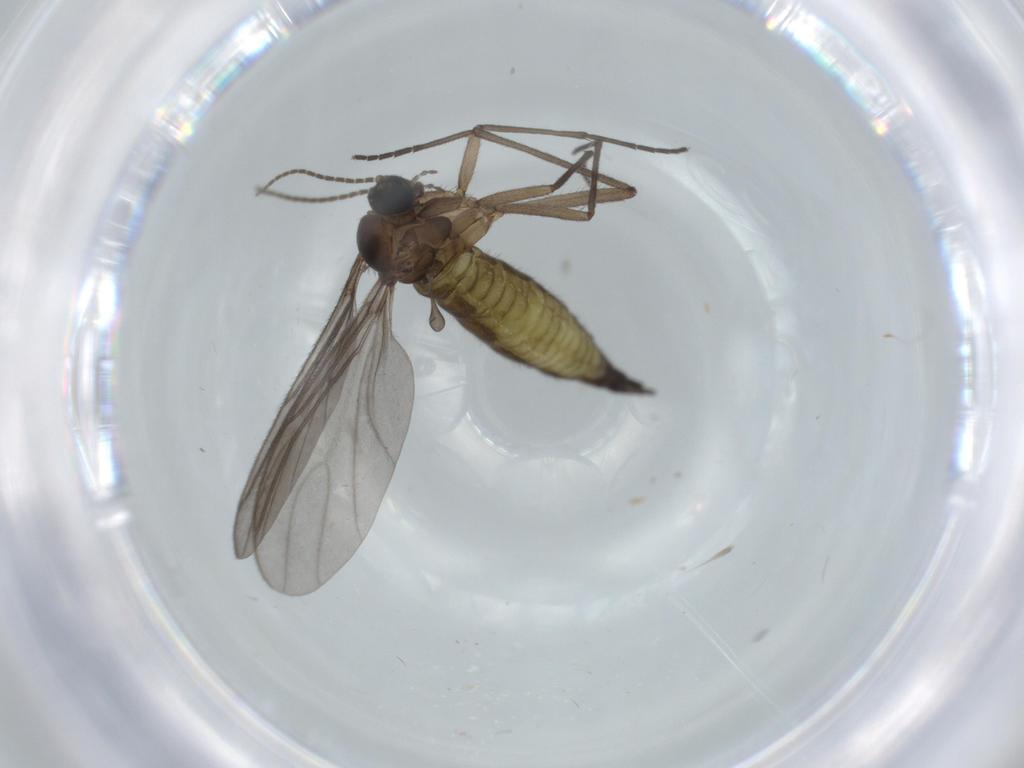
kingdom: Animalia
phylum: Arthropoda
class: Insecta
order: Diptera
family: Sciaridae
